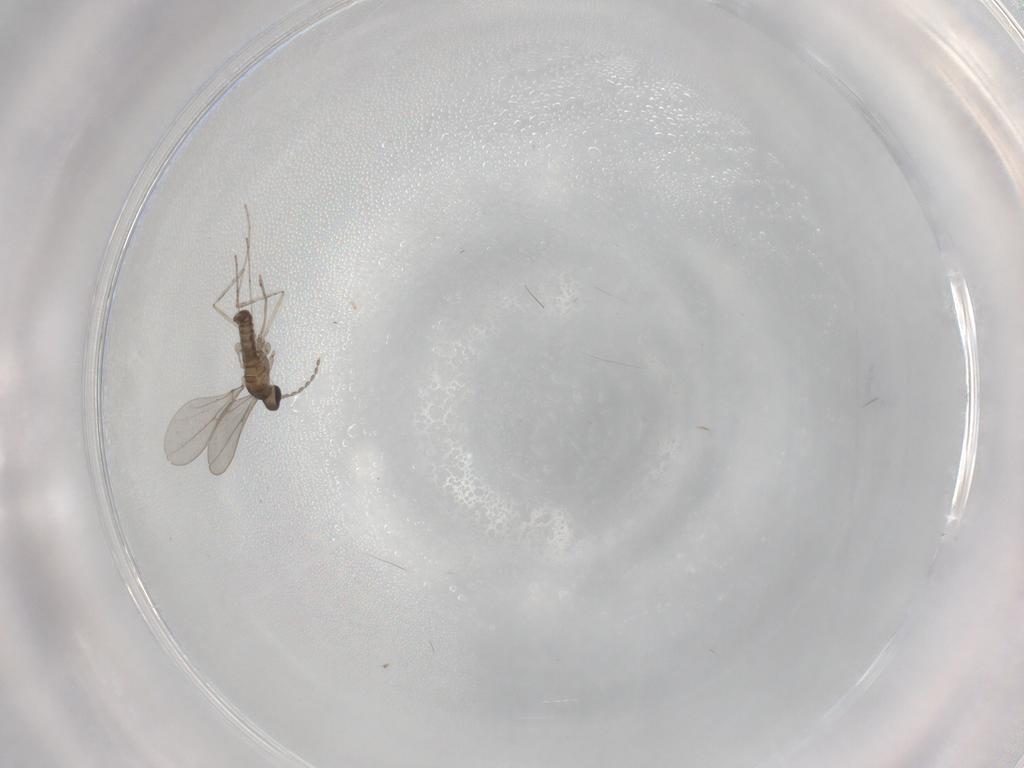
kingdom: Animalia
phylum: Arthropoda
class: Insecta
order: Diptera
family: Cecidomyiidae
